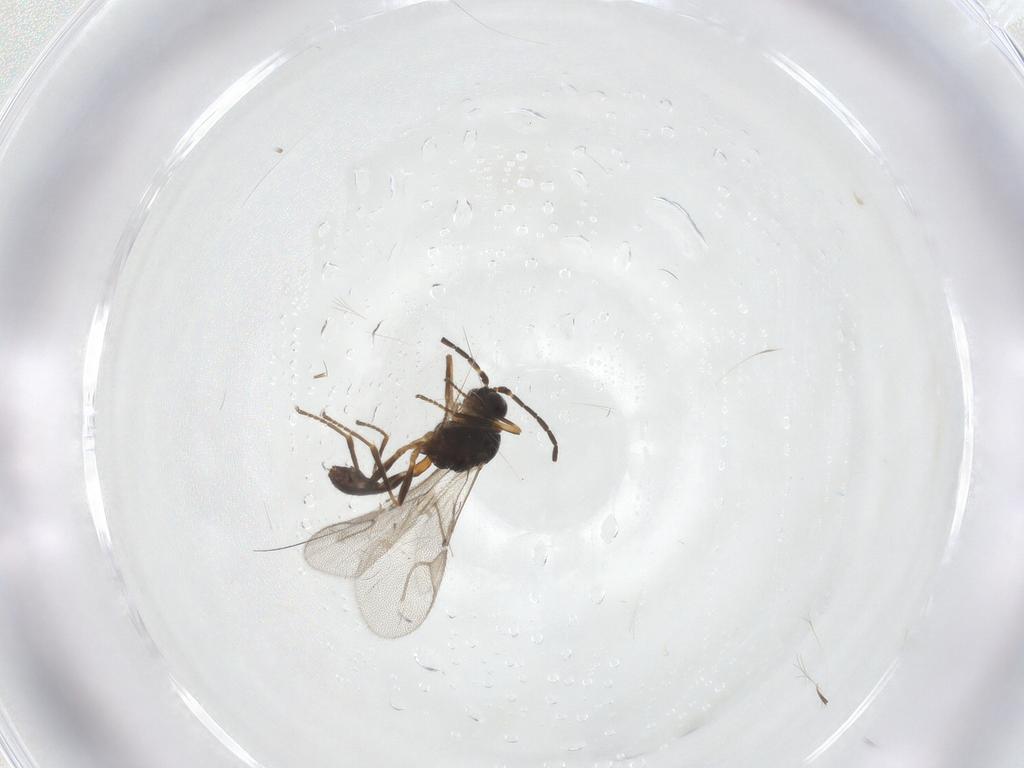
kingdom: Animalia
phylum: Arthropoda
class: Insecta
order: Hymenoptera
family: Braconidae
